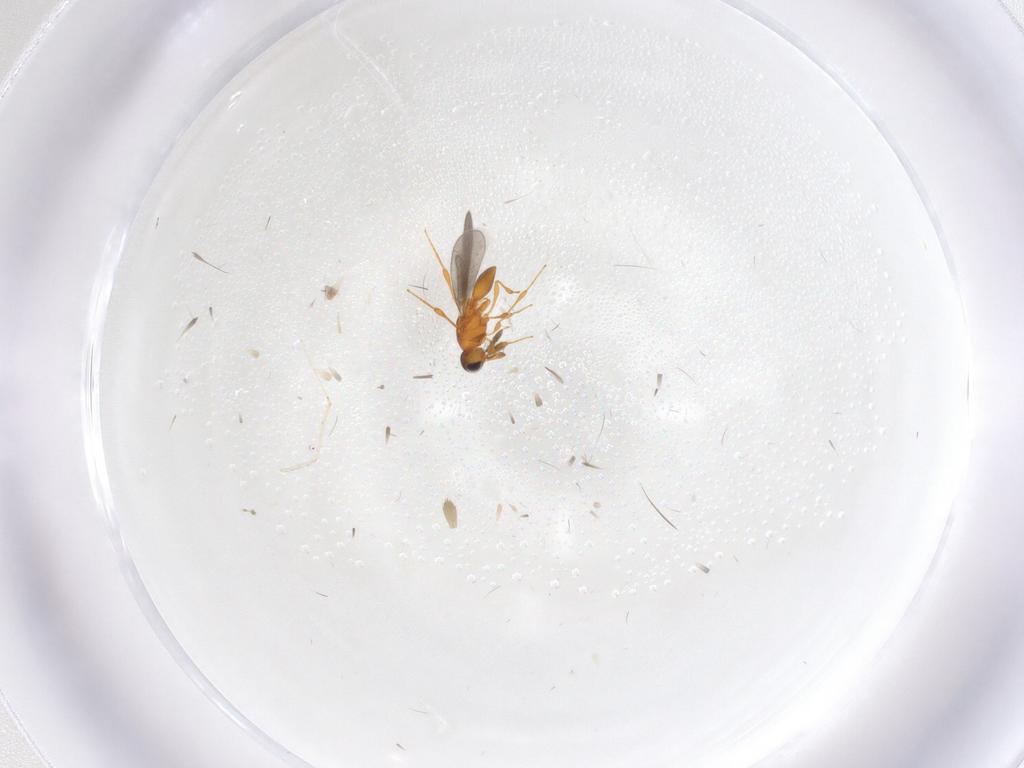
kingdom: Animalia
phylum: Arthropoda
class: Insecta
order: Hymenoptera
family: Platygastridae
